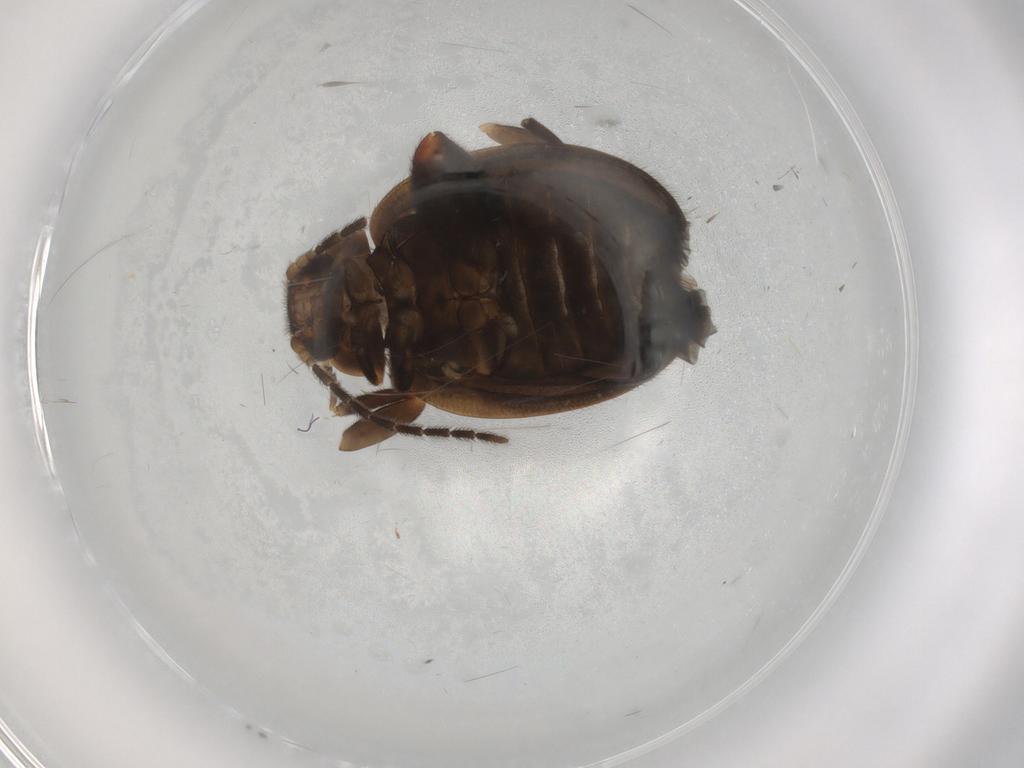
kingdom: Animalia
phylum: Arthropoda
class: Insecta
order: Coleoptera
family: Scirtidae
